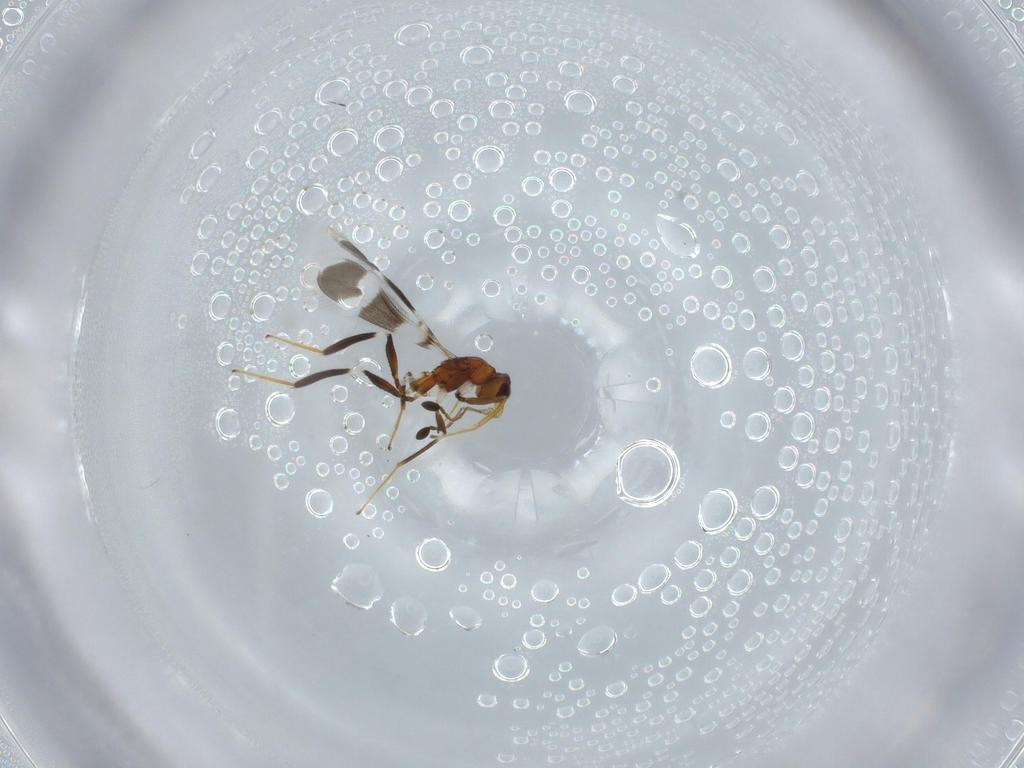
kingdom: Animalia
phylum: Arthropoda
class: Insecta
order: Hymenoptera
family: Mymaridae
